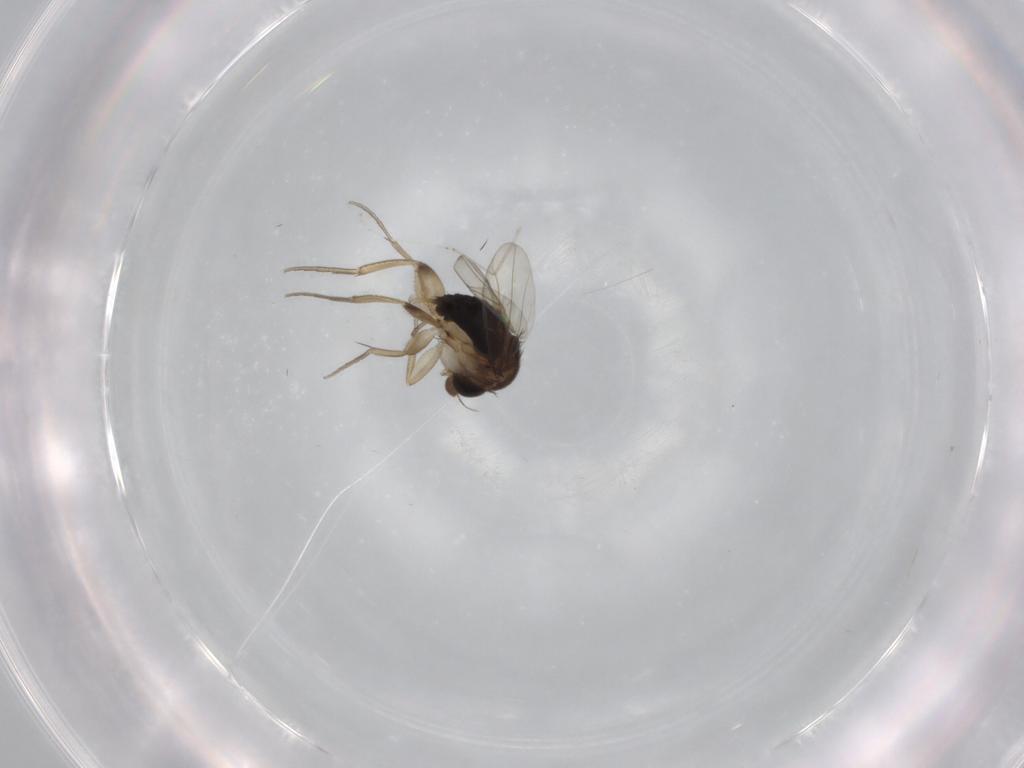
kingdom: Animalia
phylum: Arthropoda
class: Insecta
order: Diptera
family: Phoridae
